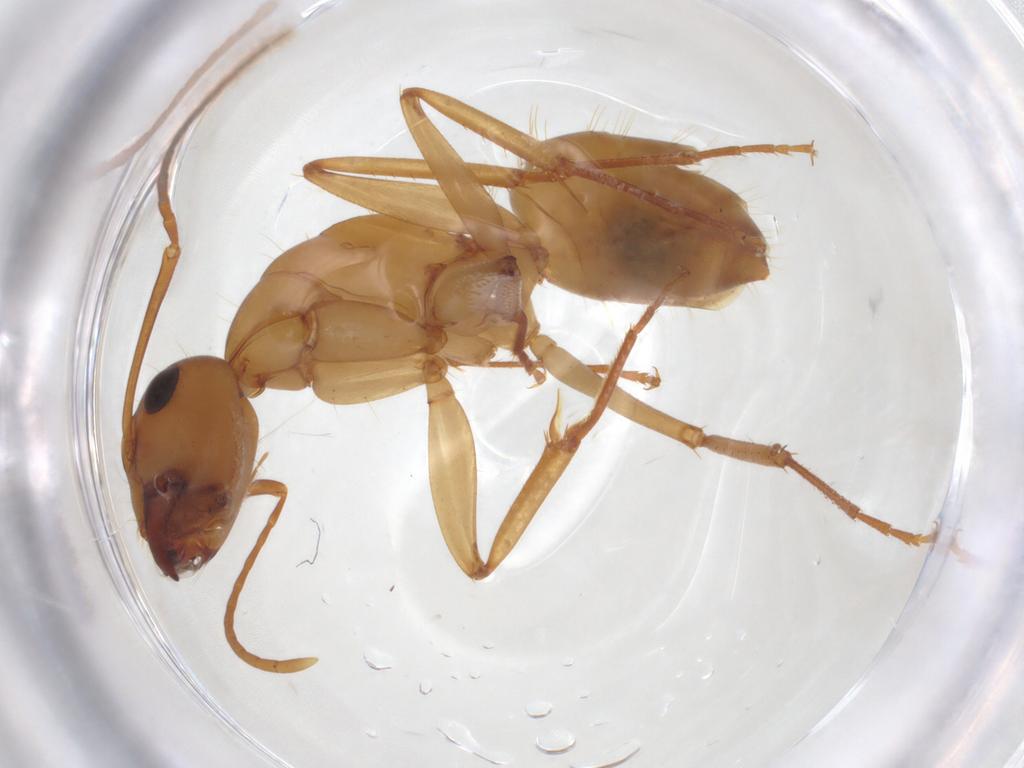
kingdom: Animalia
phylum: Arthropoda
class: Insecta
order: Hymenoptera
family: Formicidae
